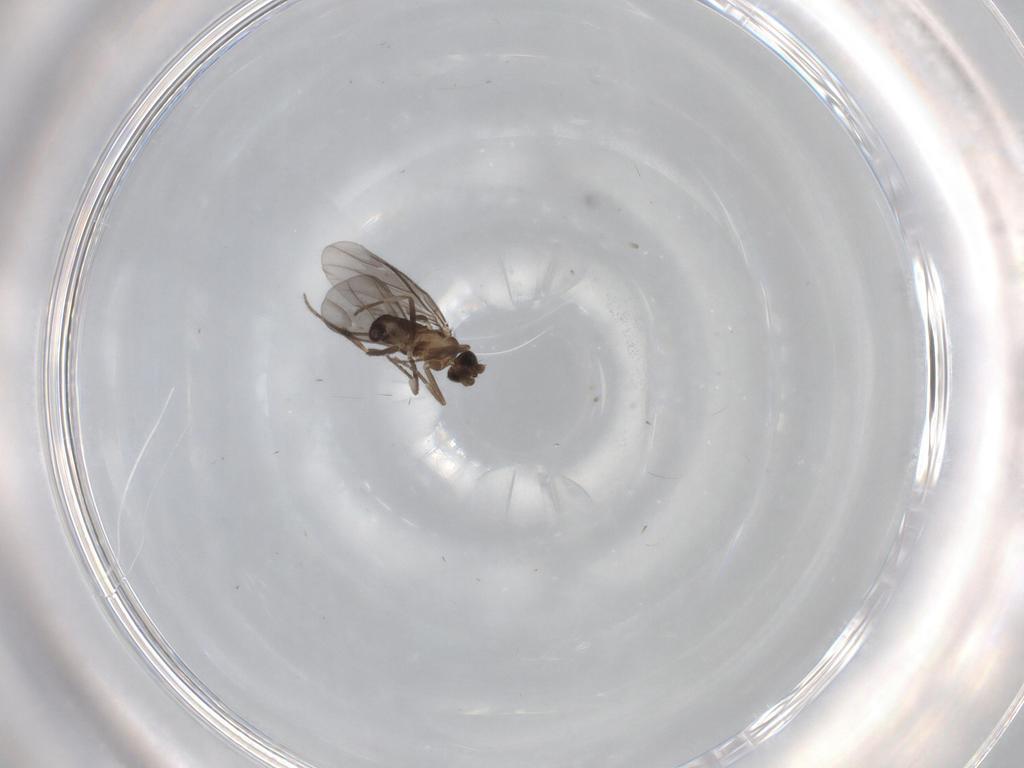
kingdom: Animalia
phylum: Arthropoda
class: Insecta
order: Diptera
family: Phoridae
